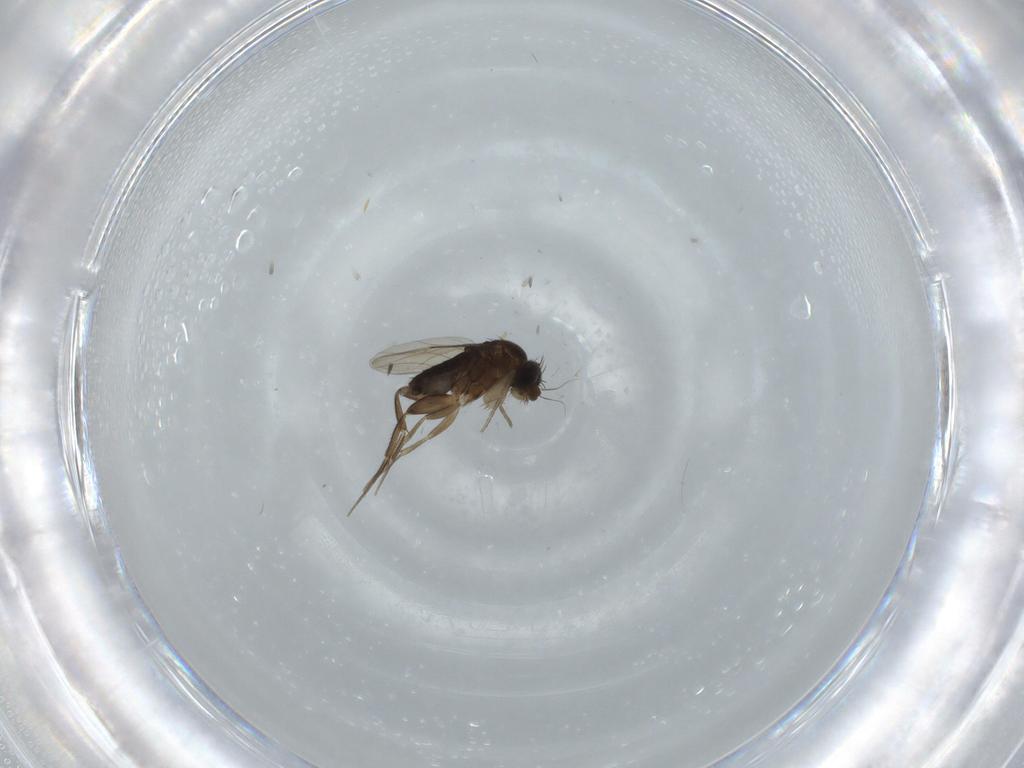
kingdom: Animalia
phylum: Arthropoda
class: Insecta
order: Diptera
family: Phoridae
